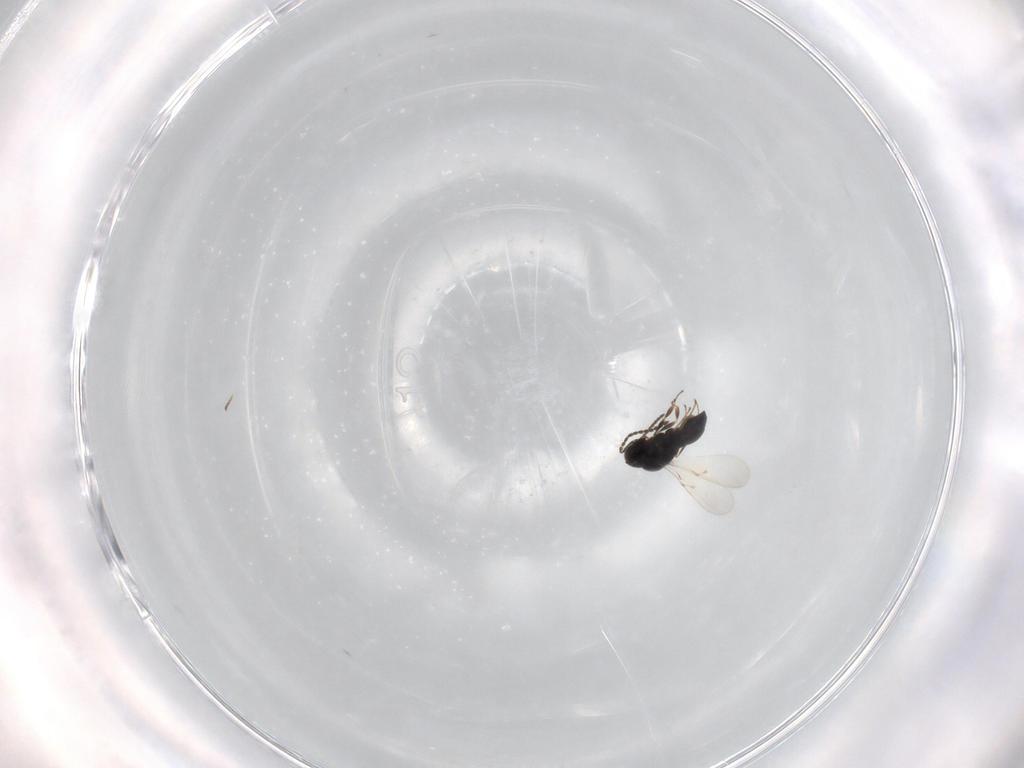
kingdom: Animalia
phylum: Arthropoda
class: Insecta
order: Hymenoptera
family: Scelionidae
